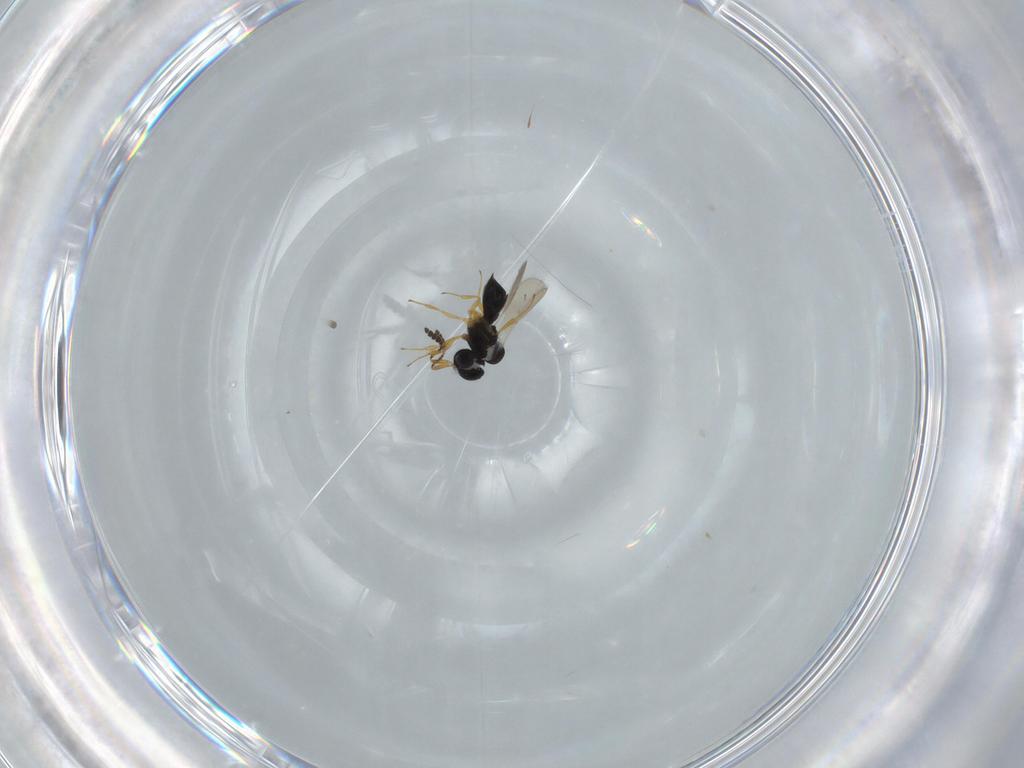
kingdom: Animalia
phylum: Arthropoda
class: Insecta
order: Hymenoptera
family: Scelionidae
